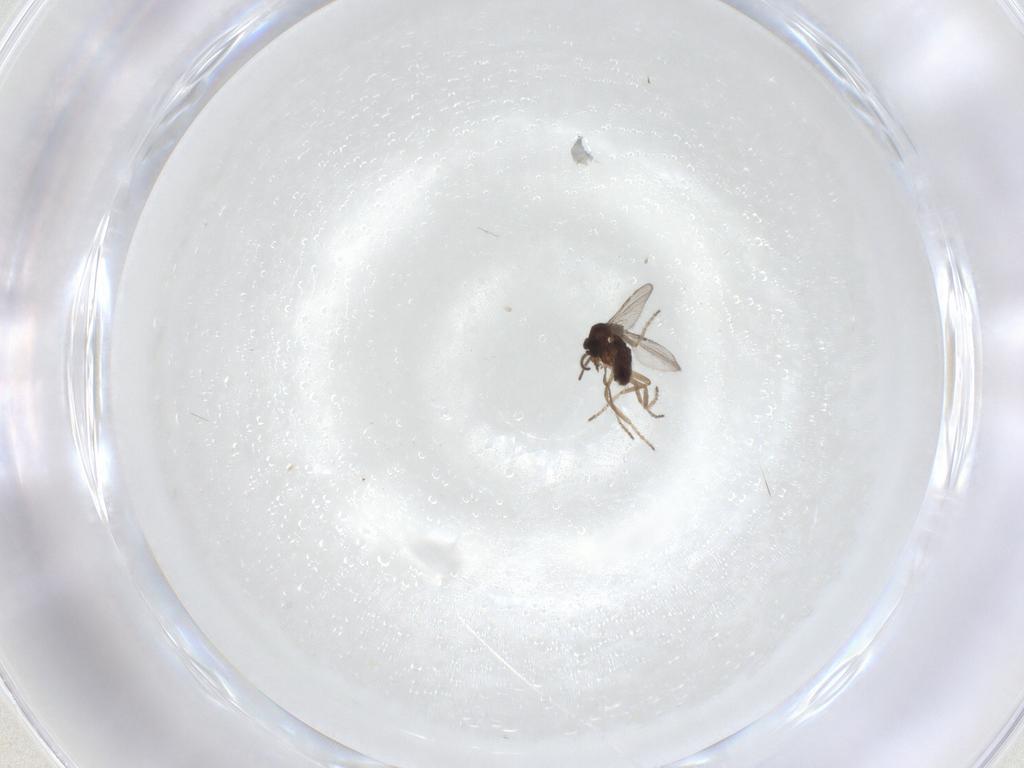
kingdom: Animalia
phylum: Arthropoda
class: Insecta
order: Diptera
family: Ceratopogonidae
